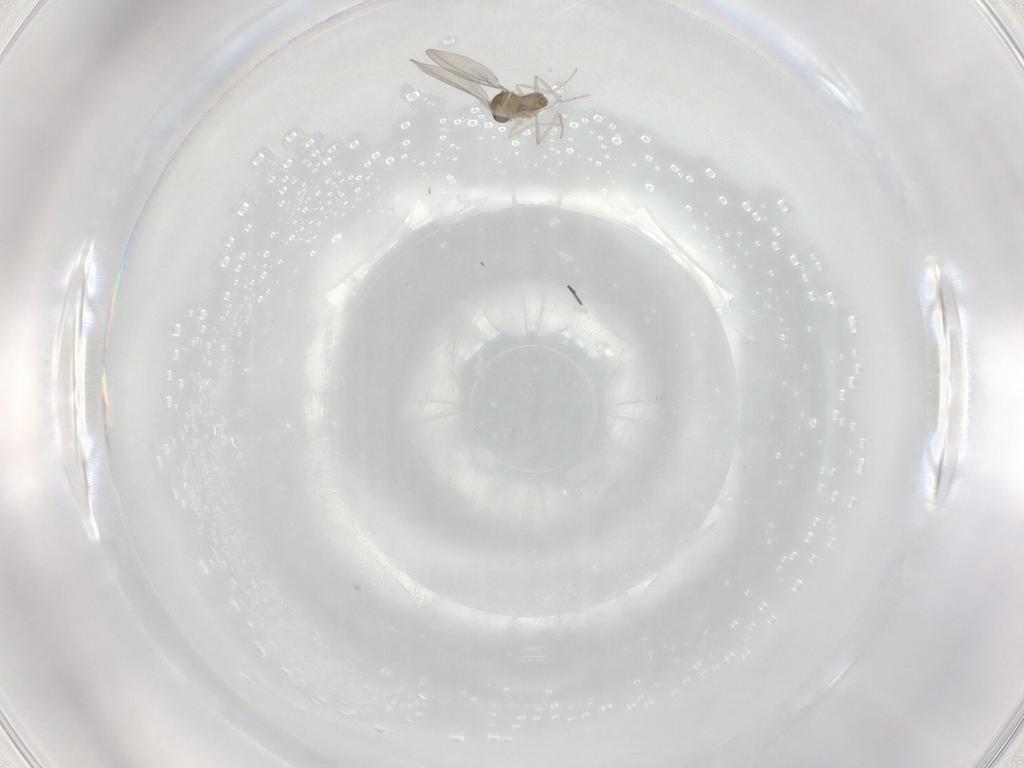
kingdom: Animalia
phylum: Arthropoda
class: Insecta
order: Diptera
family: Cecidomyiidae
